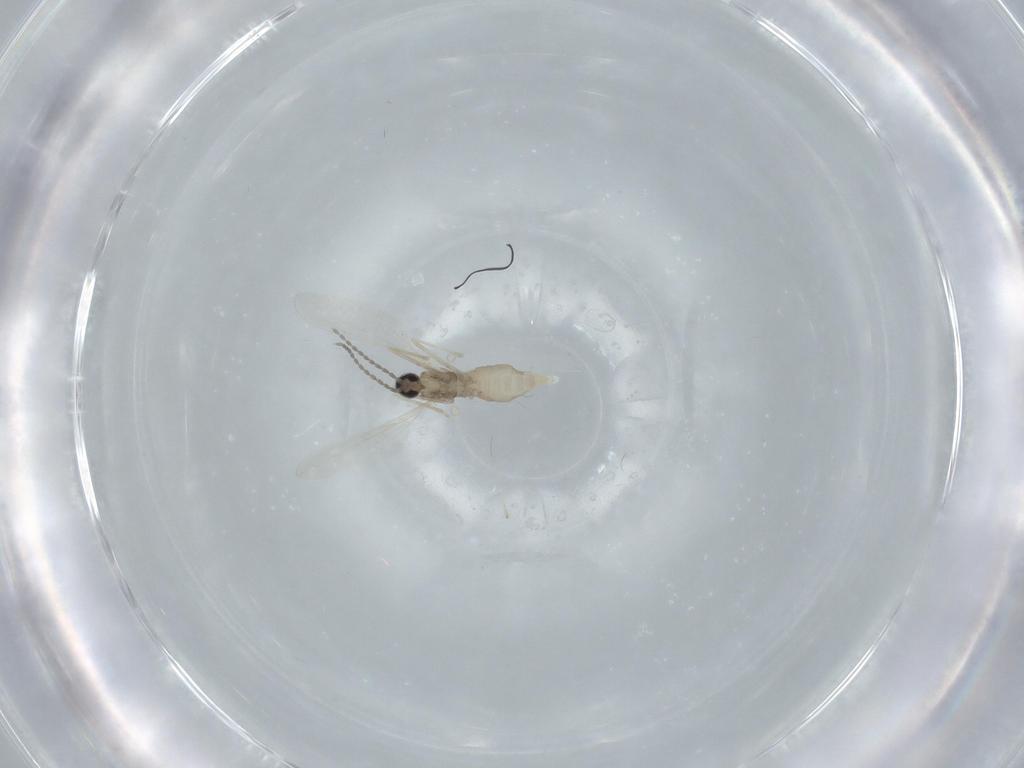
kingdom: Animalia
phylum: Arthropoda
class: Insecta
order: Diptera
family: Cecidomyiidae
